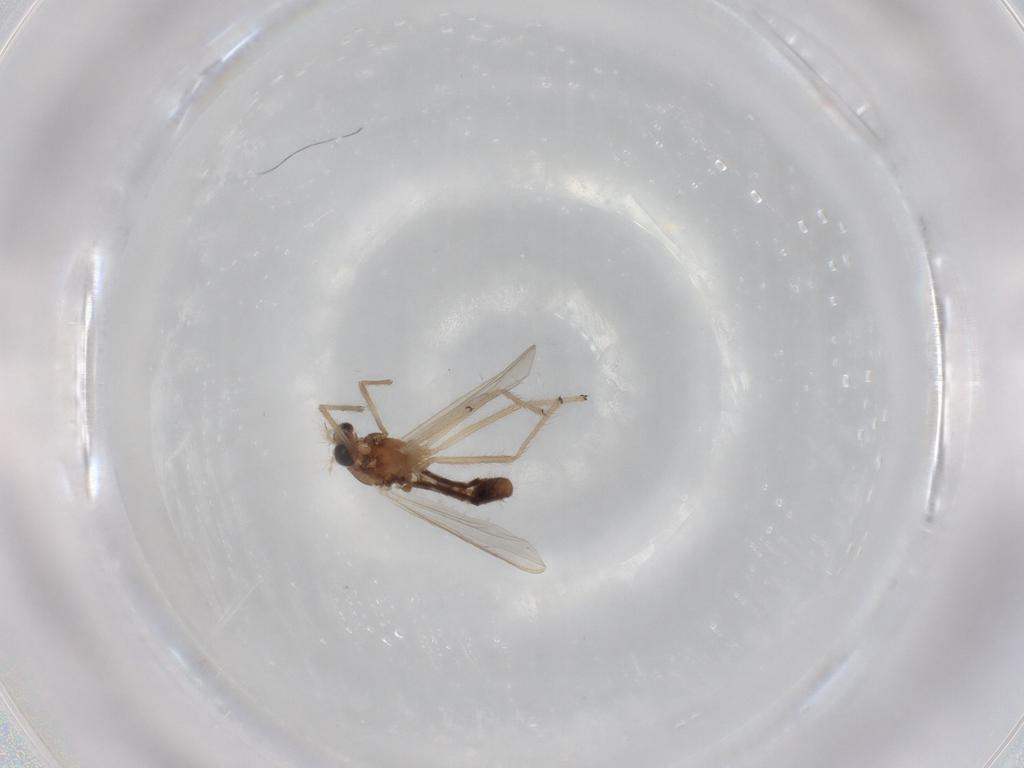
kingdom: Animalia
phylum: Arthropoda
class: Insecta
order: Diptera
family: Chironomidae
